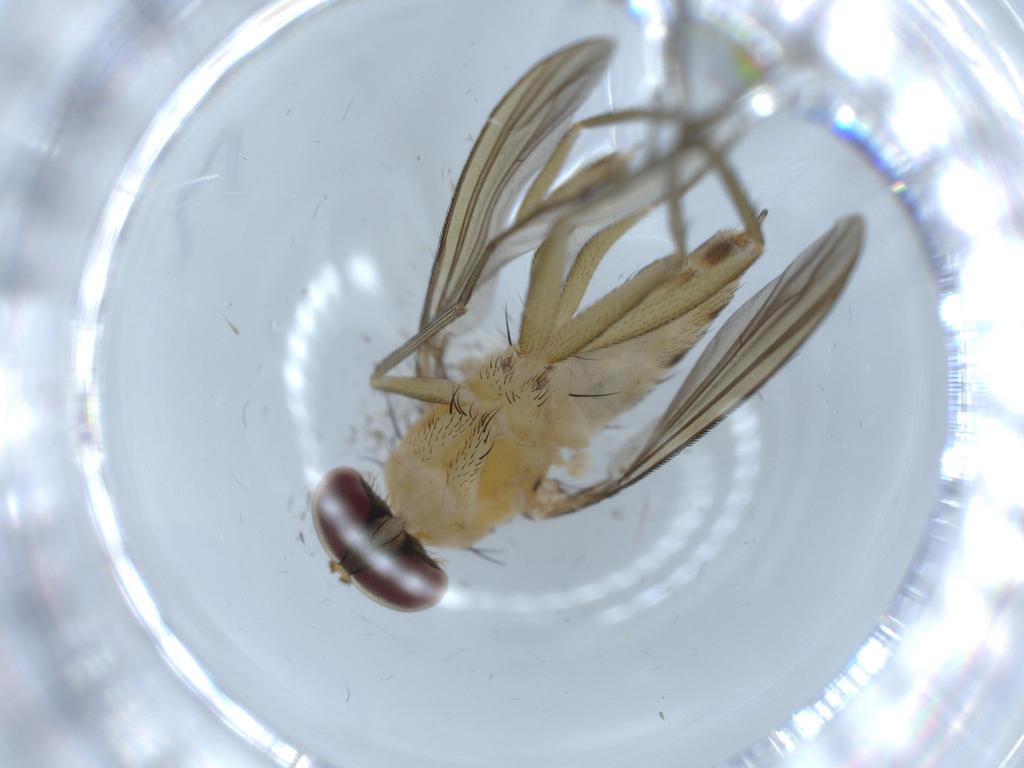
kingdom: Animalia
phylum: Arthropoda
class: Insecta
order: Diptera
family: Dolichopodidae
